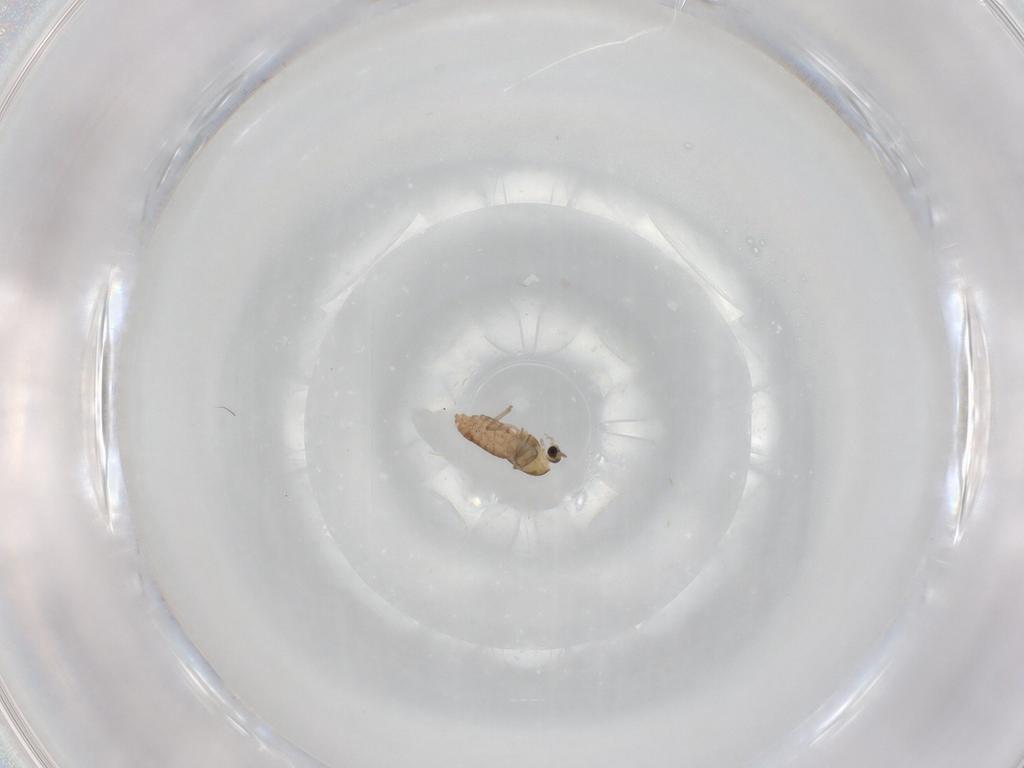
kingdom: Animalia
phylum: Arthropoda
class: Insecta
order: Diptera
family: Chironomidae
